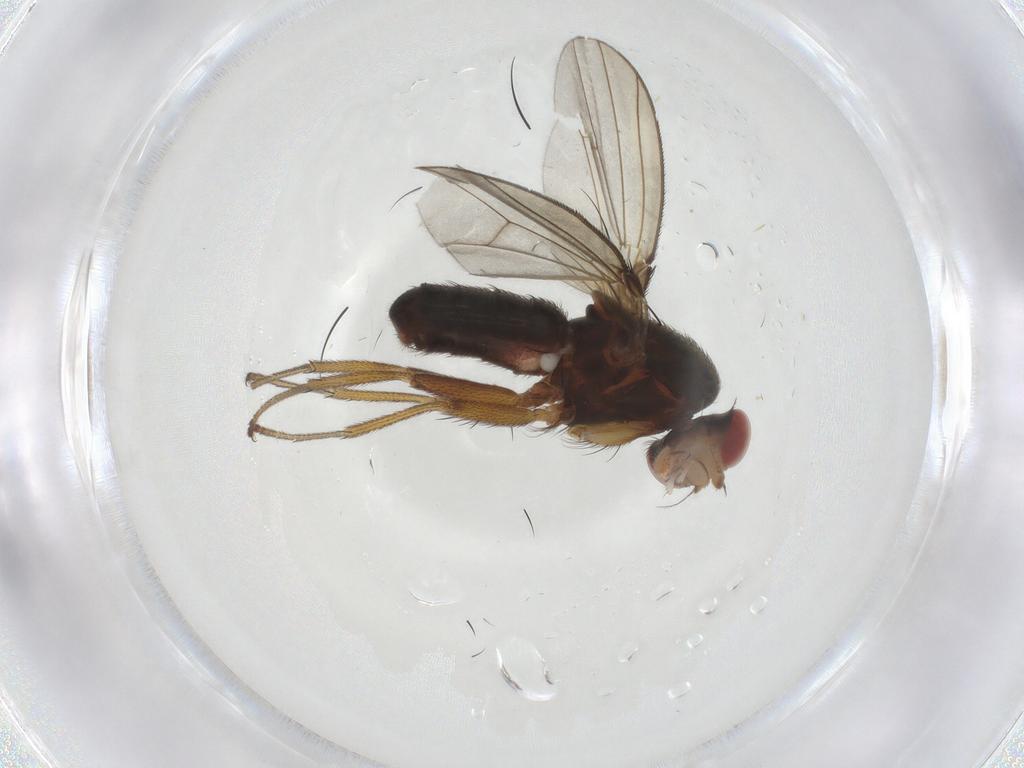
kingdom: Animalia
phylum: Arthropoda
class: Insecta
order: Diptera
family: Diastatidae
